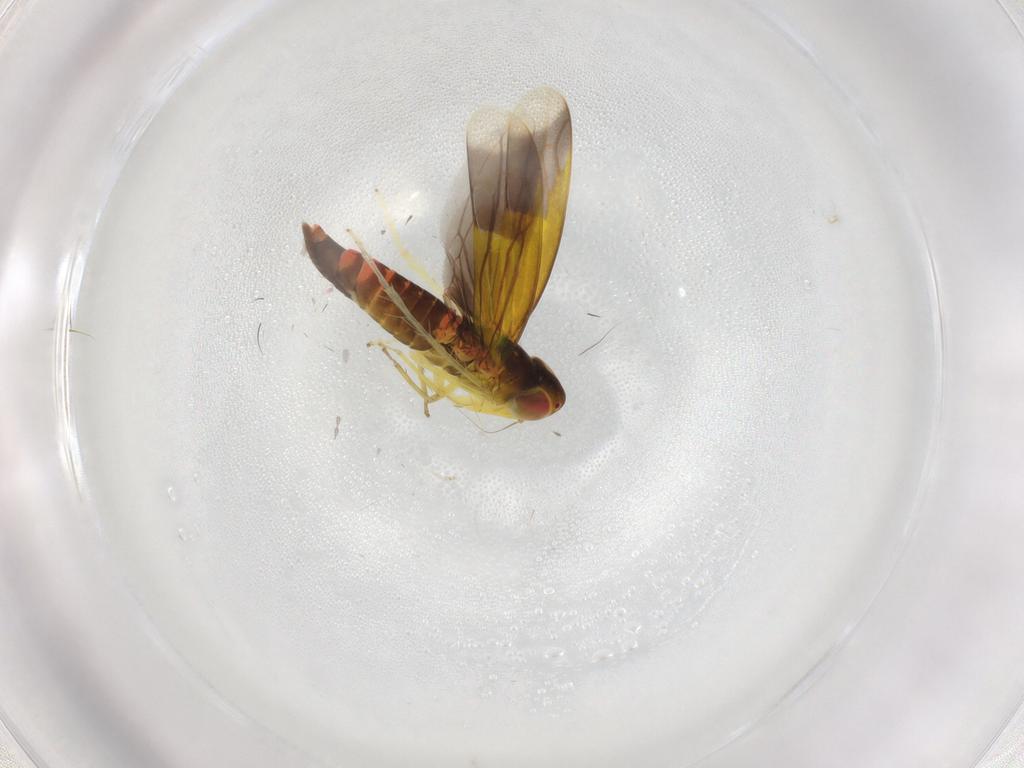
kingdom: Animalia
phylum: Arthropoda
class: Insecta
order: Hemiptera
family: Cicadellidae
